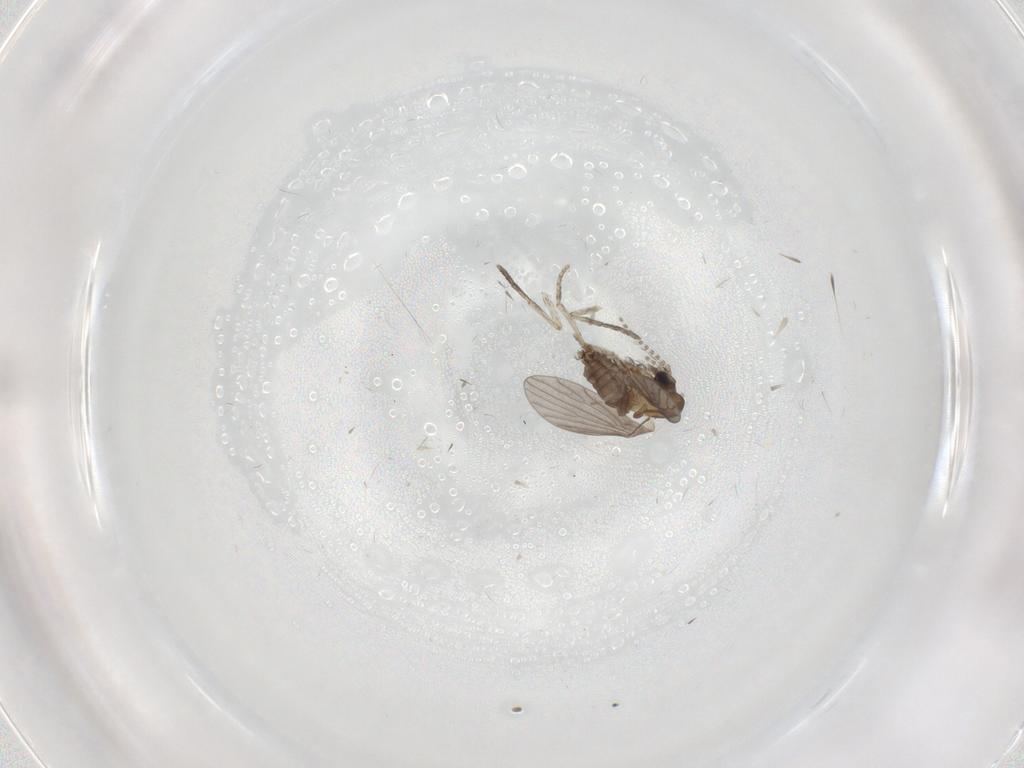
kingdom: Animalia
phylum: Arthropoda
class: Insecta
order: Diptera
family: Psychodidae
